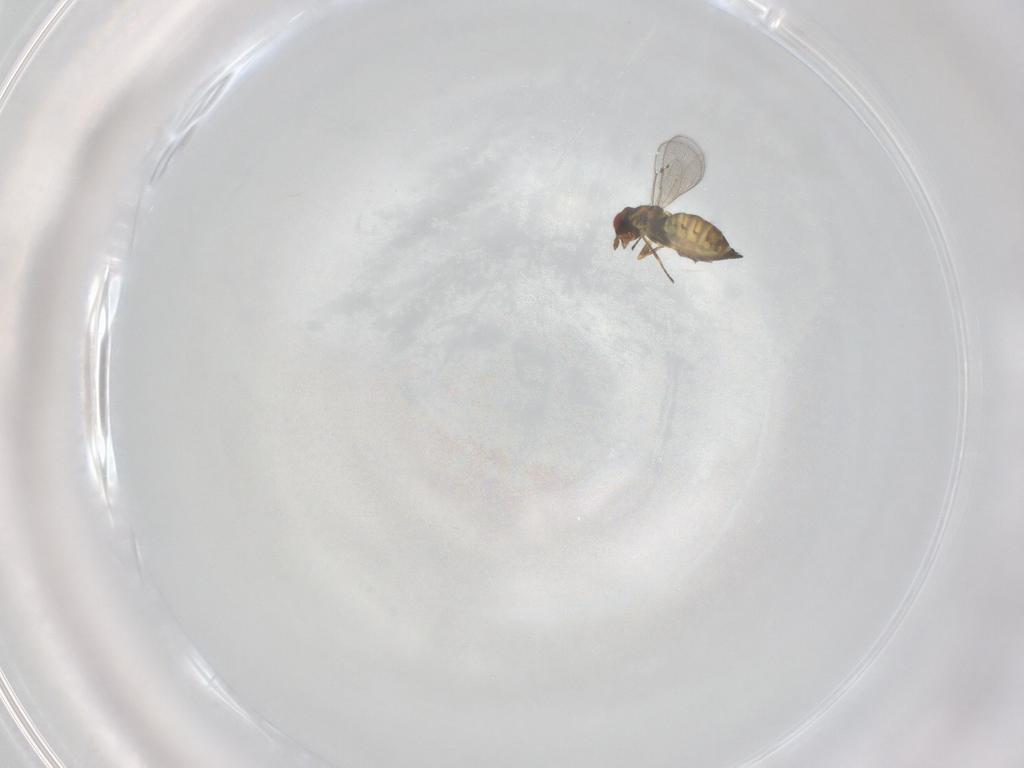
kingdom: Animalia
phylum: Arthropoda
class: Insecta
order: Hymenoptera
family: Eulophidae
